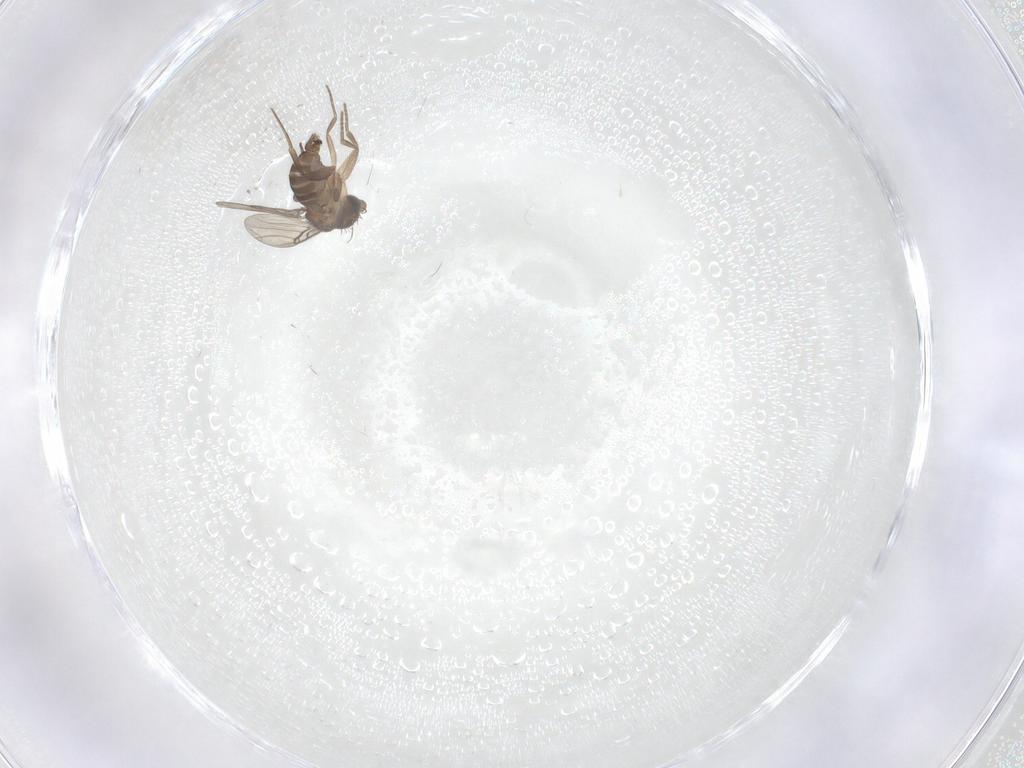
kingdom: Animalia
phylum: Arthropoda
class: Insecta
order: Diptera
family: Phoridae
